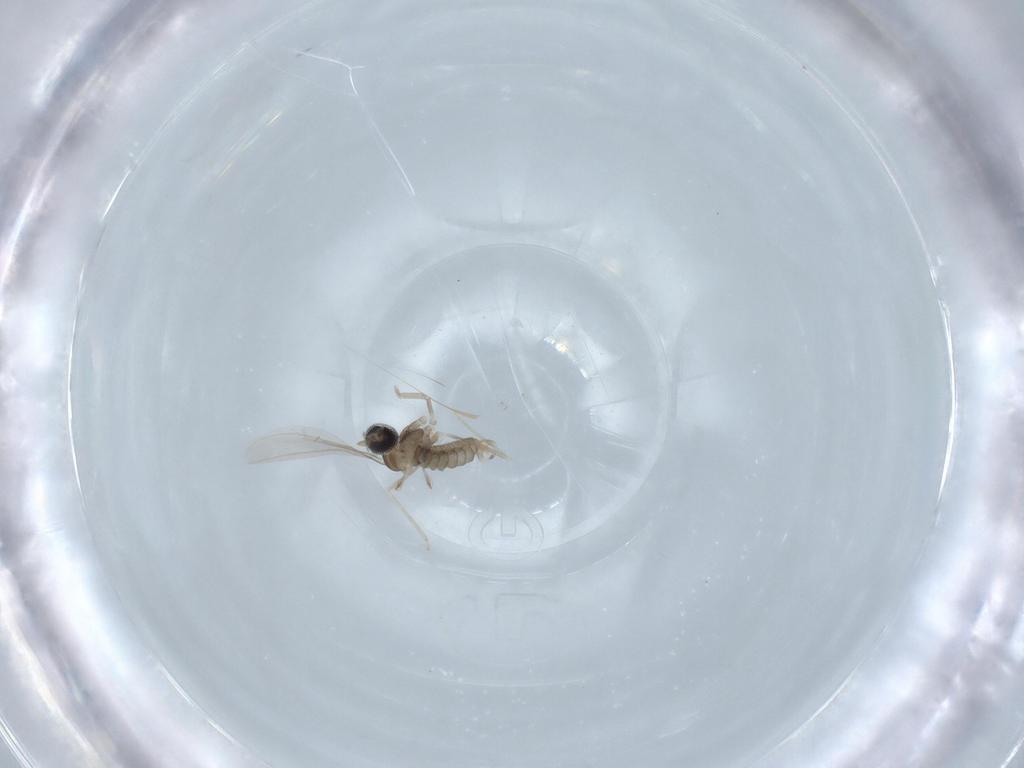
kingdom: Animalia
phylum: Arthropoda
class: Insecta
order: Diptera
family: Cecidomyiidae
